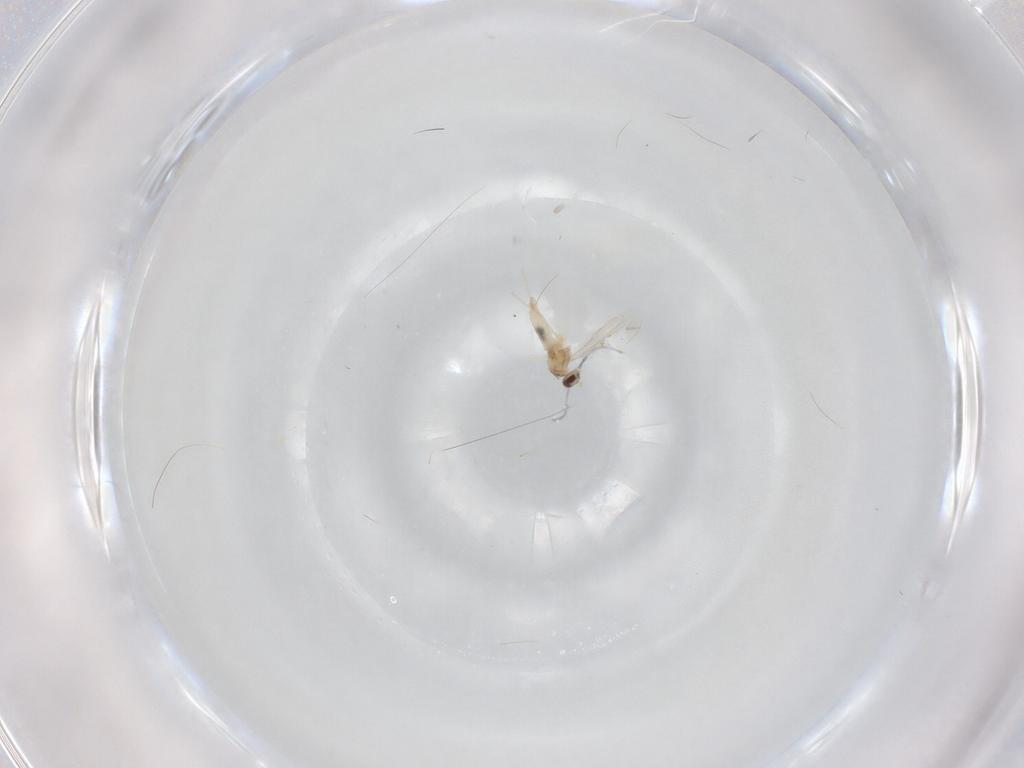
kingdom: Animalia
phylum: Arthropoda
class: Insecta
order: Diptera
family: Cecidomyiidae
